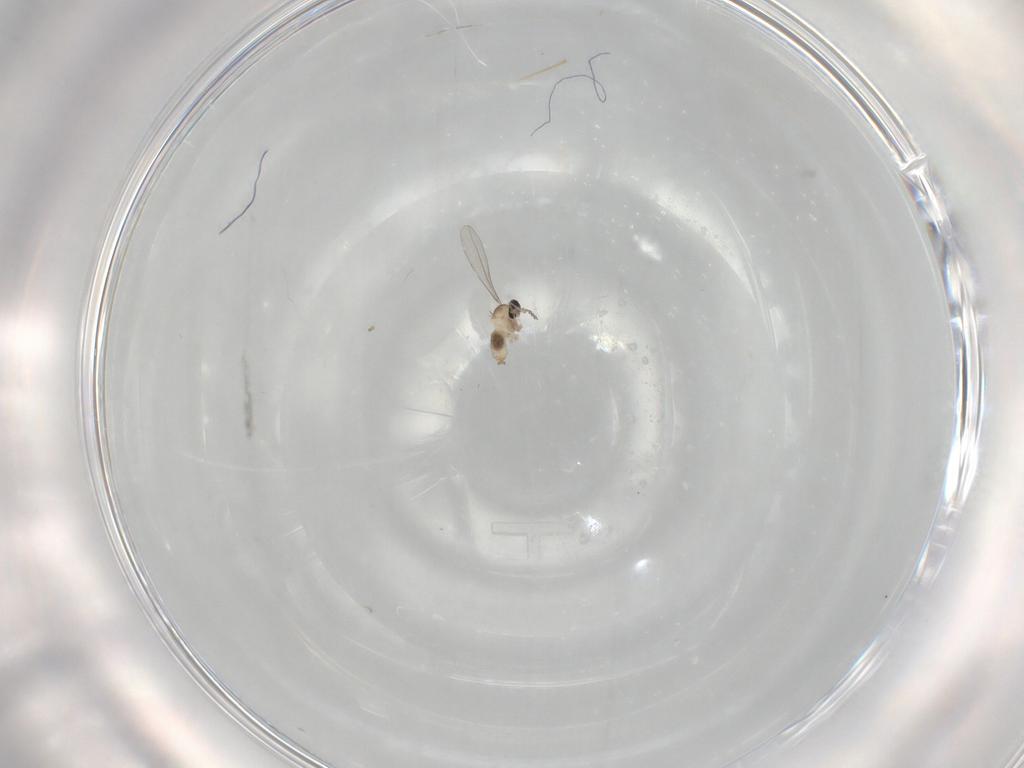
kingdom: Animalia
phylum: Arthropoda
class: Insecta
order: Diptera
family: Cecidomyiidae
